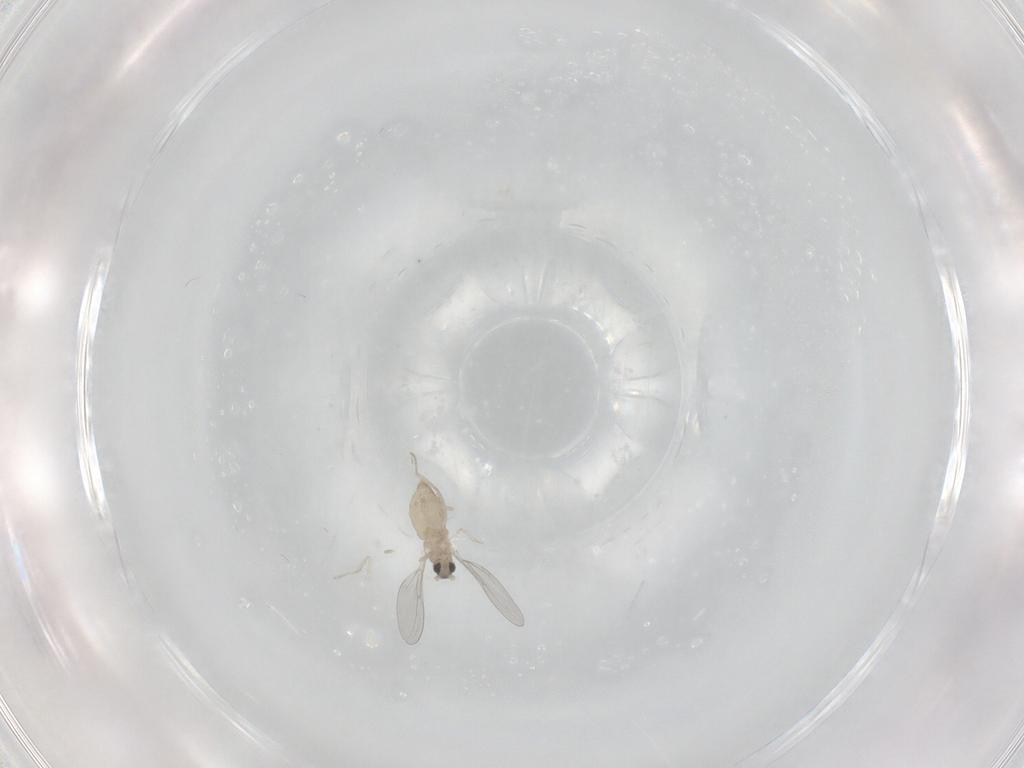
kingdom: Animalia
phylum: Arthropoda
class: Insecta
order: Diptera
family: Cecidomyiidae
